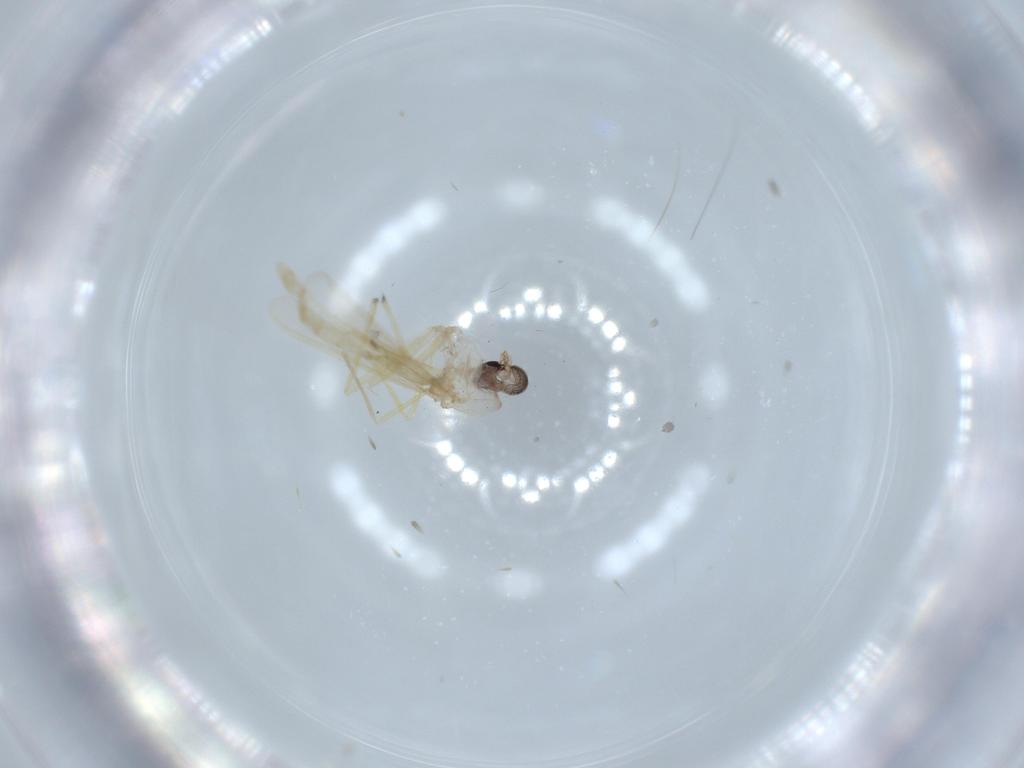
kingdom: Animalia
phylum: Arthropoda
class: Insecta
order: Diptera
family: Chironomidae
